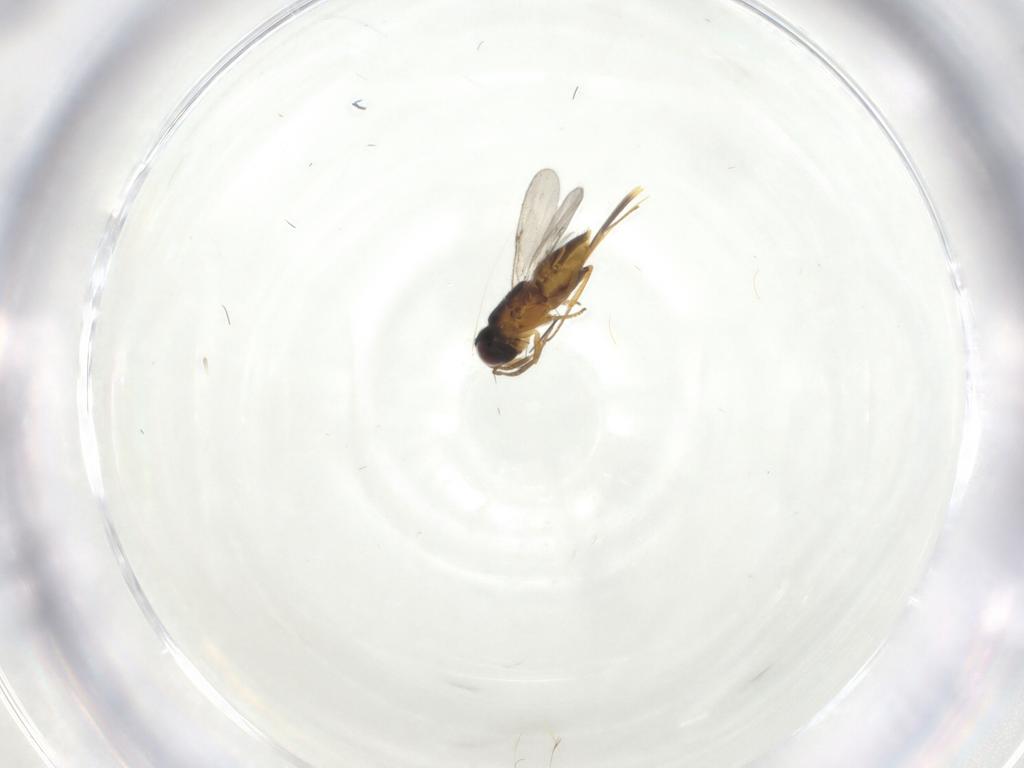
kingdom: Animalia
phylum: Arthropoda
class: Insecta
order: Hymenoptera
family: Encyrtidae
